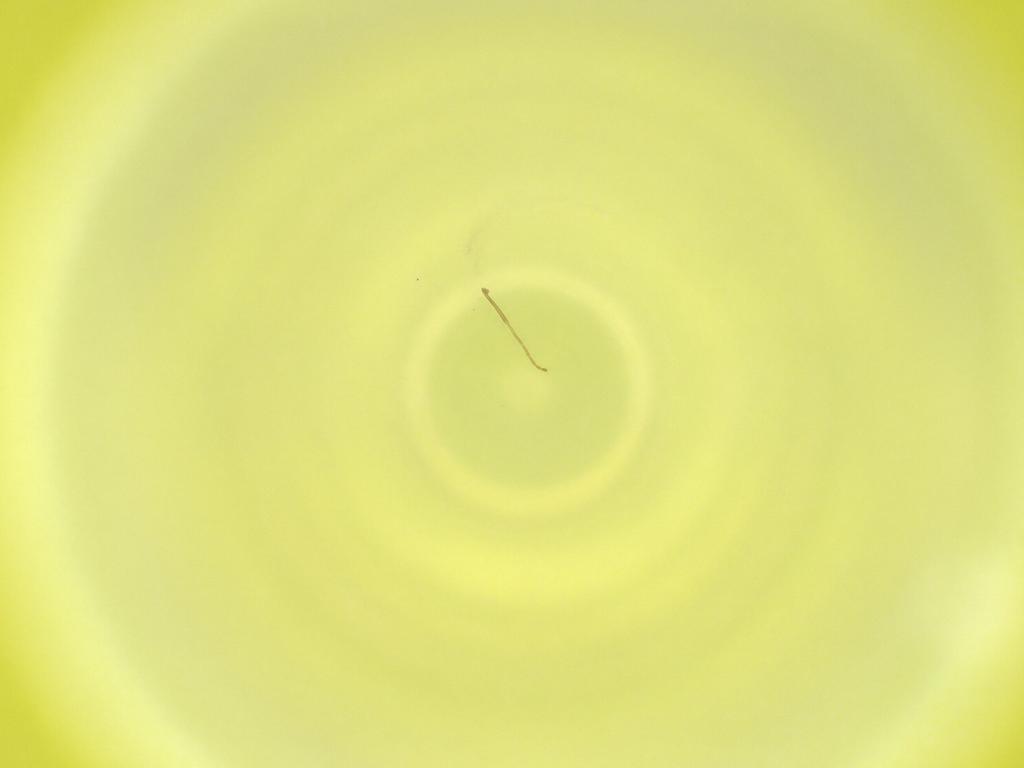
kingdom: Animalia
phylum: Arthropoda
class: Insecta
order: Diptera
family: Cecidomyiidae
